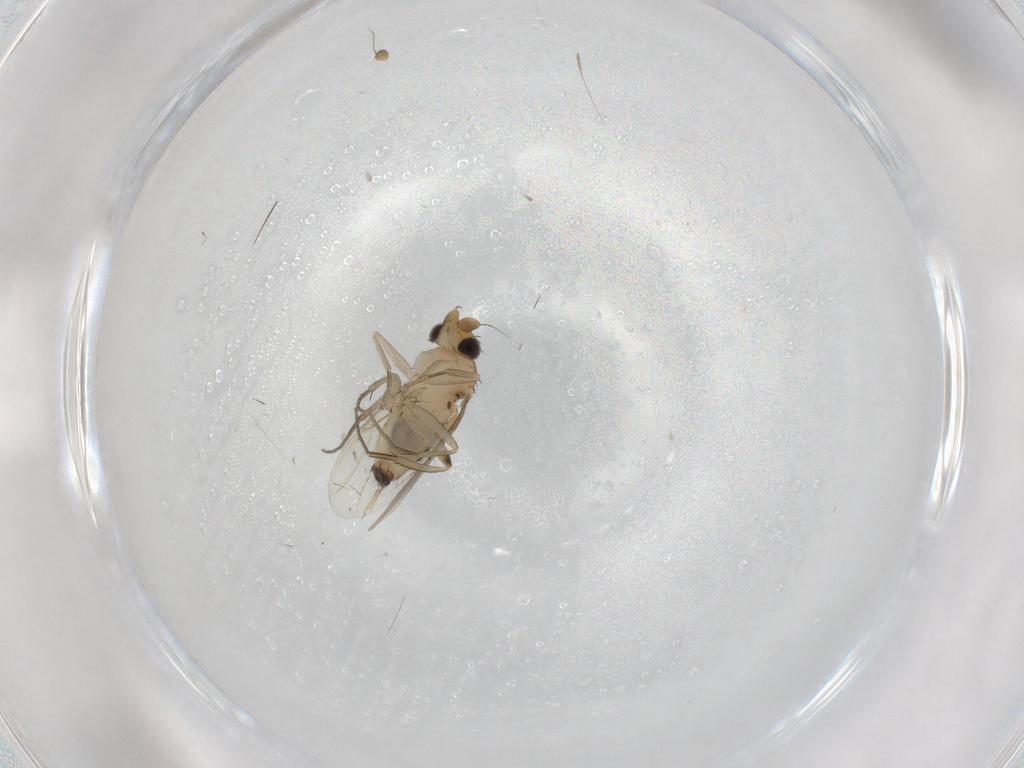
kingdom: Animalia
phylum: Arthropoda
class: Insecta
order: Diptera
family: Phoridae
